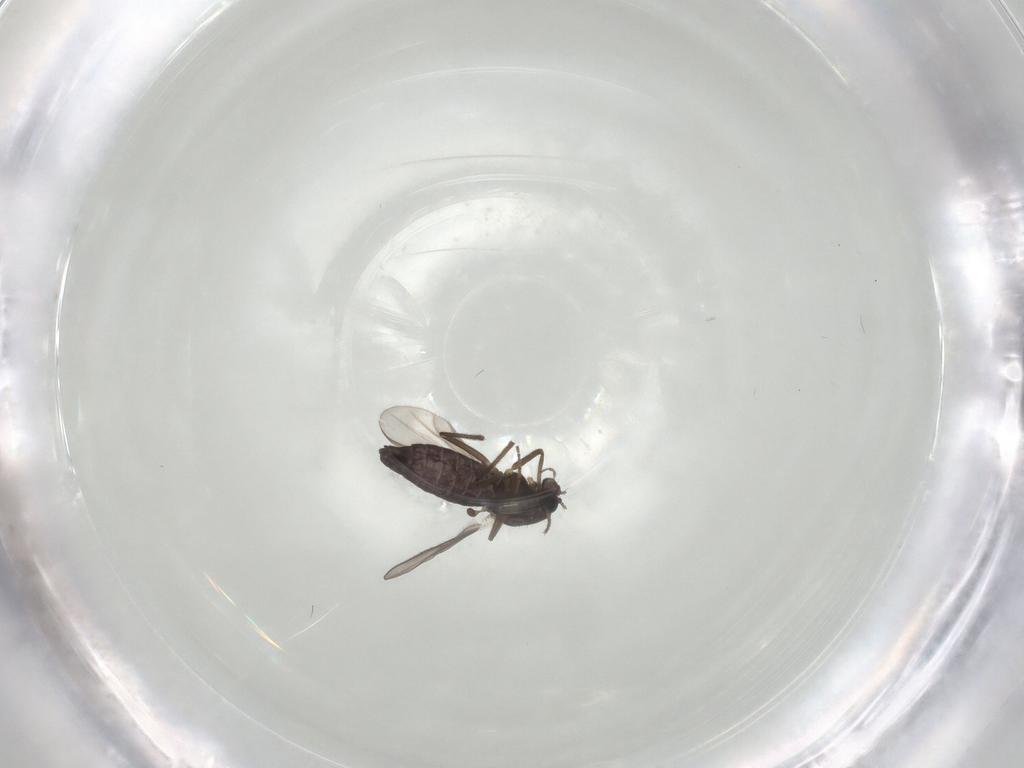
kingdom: Animalia
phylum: Arthropoda
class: Insecta
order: Diptera
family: Chironomidae
